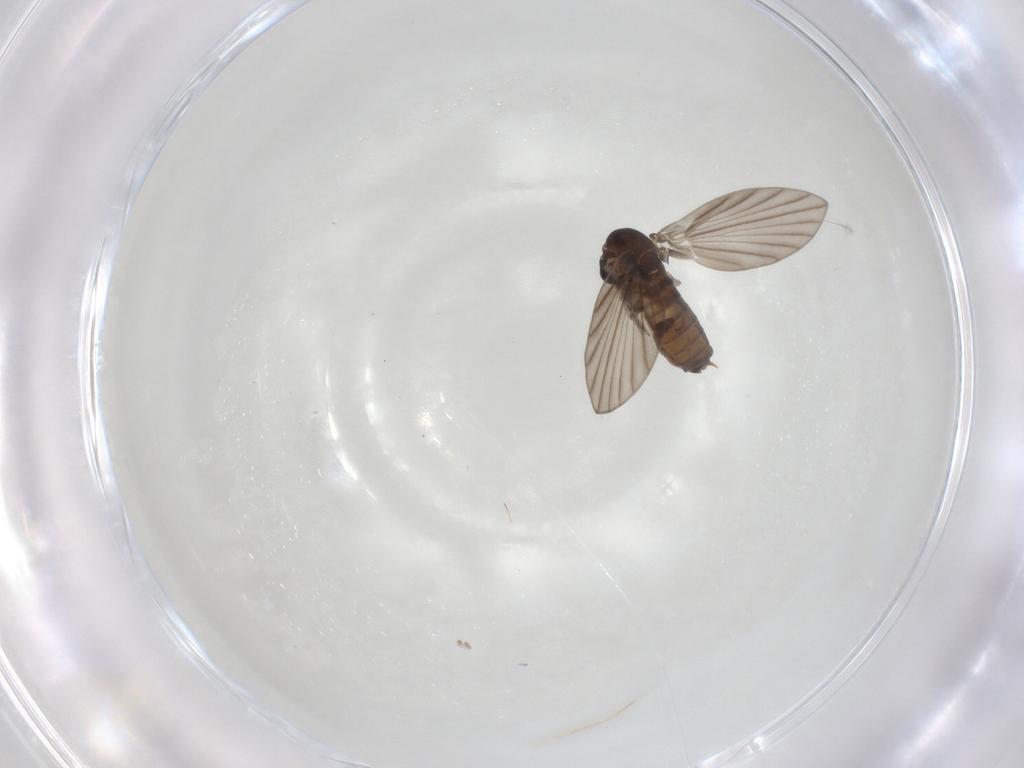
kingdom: Animalia
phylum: Arthropoda
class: Insecta
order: Diptera
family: Psychodidae
